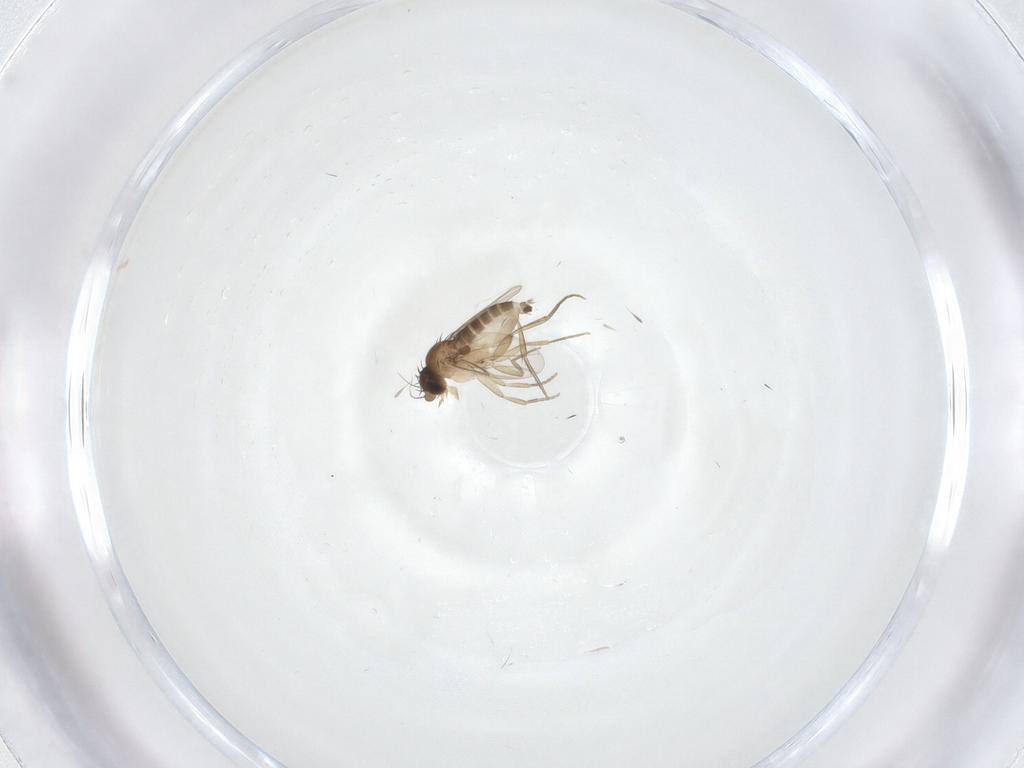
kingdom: Animalia
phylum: Arthropoda
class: Insecta
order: Diptera
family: Phoridae
